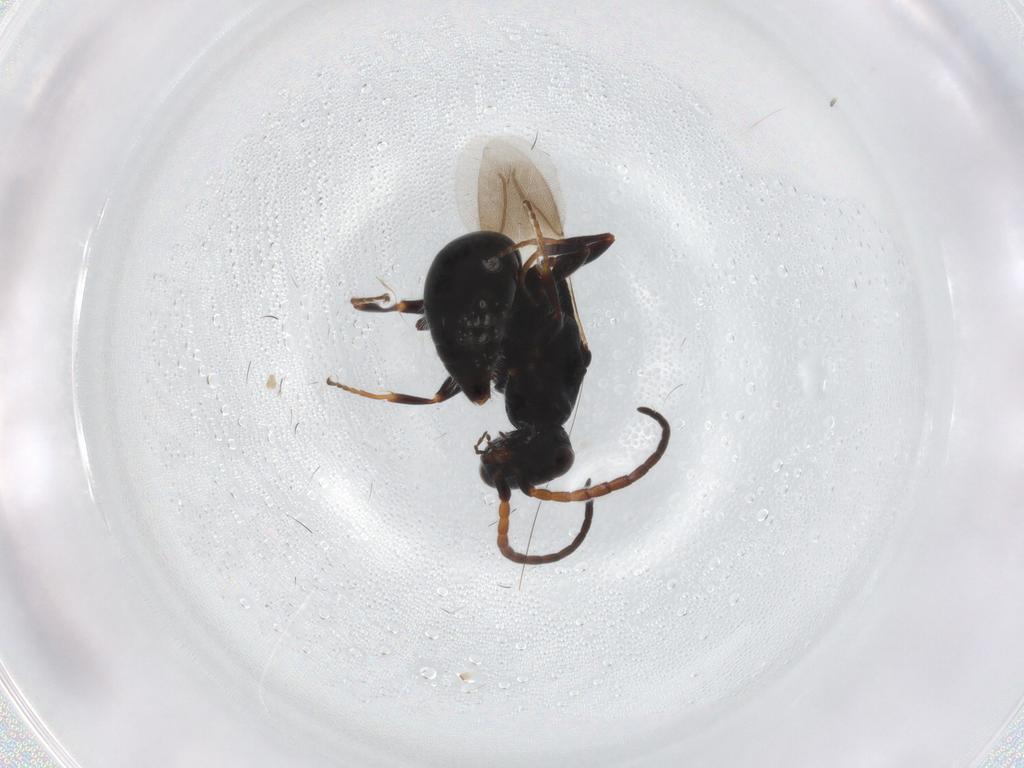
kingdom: Animalia
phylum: Arthropoda
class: Insecta
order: Hymenoptera
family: Bethylidae
